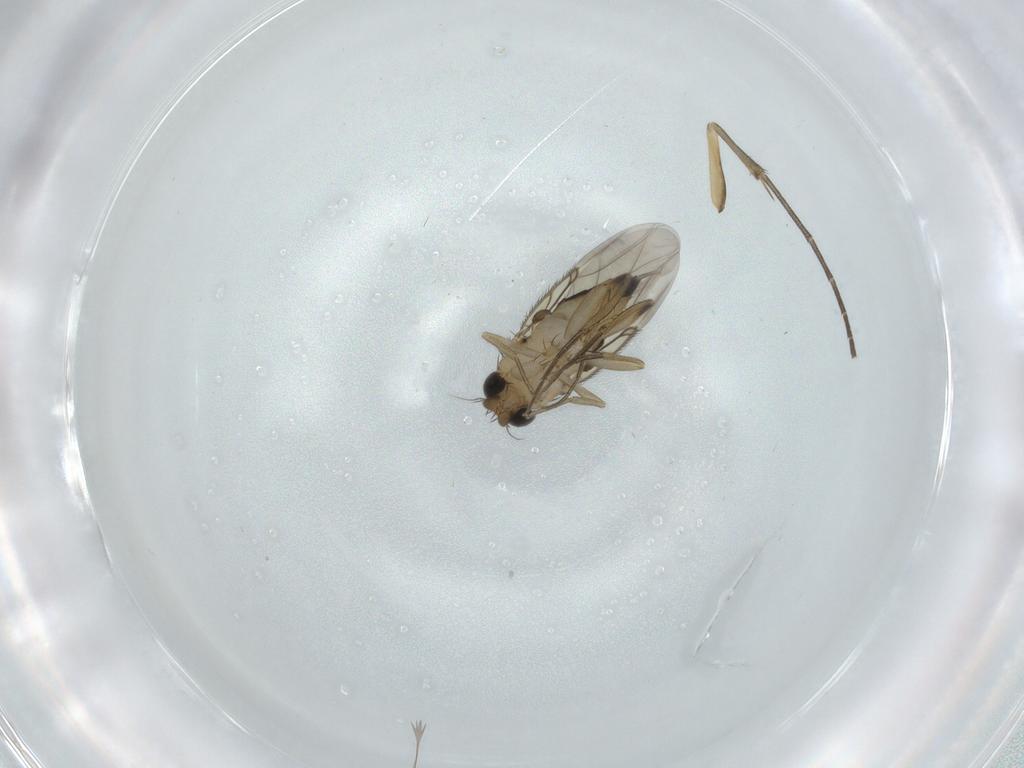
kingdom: Animalia
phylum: Arthropoda
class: Insecta
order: Diptera
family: Phoridae
